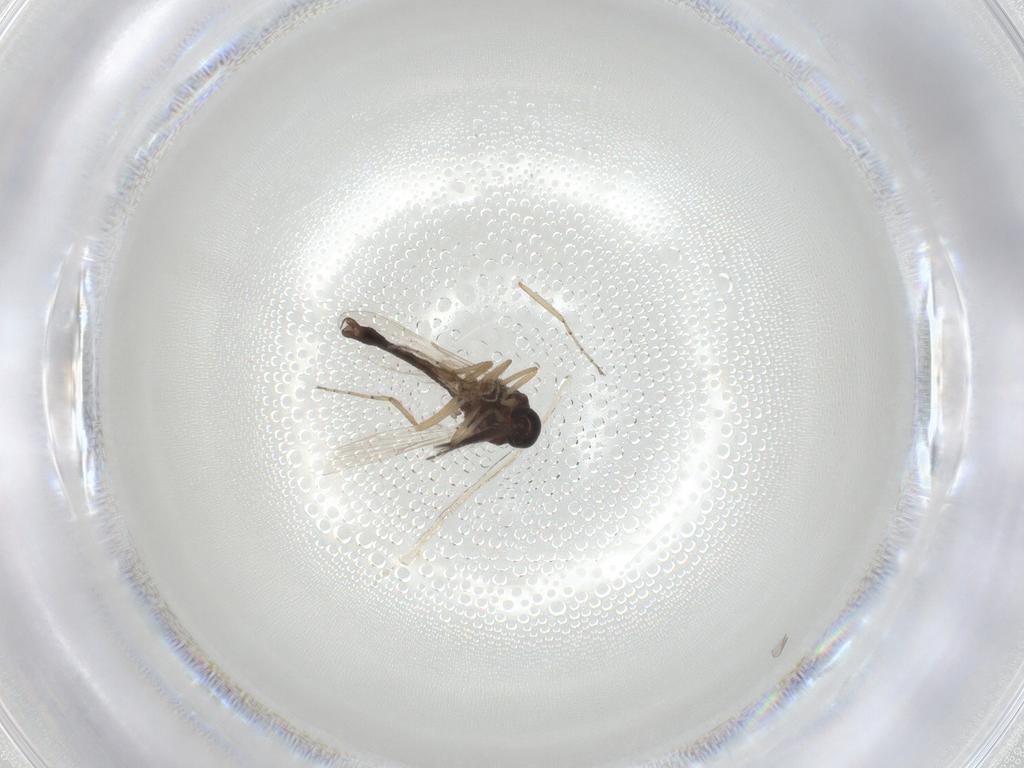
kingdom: Animalia
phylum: Arthropoda
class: Insecta
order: Diptera
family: Ceratopogonidae
